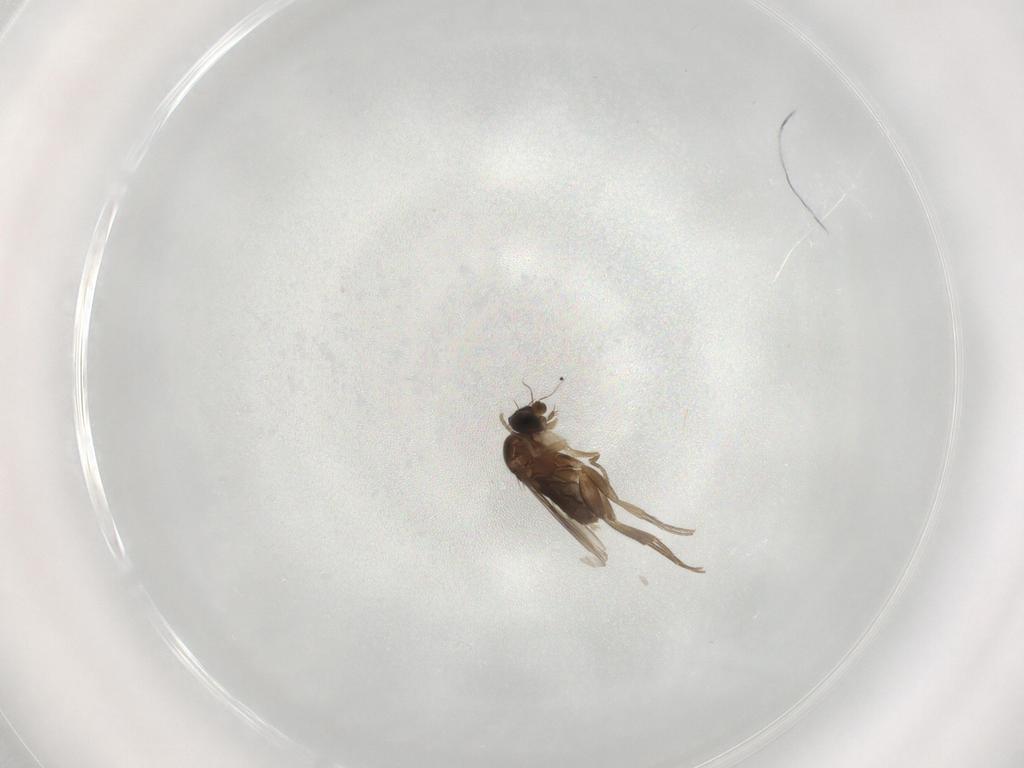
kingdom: Animalia
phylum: Arthropoda
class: Insecta
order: Diptera
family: Phoridae
